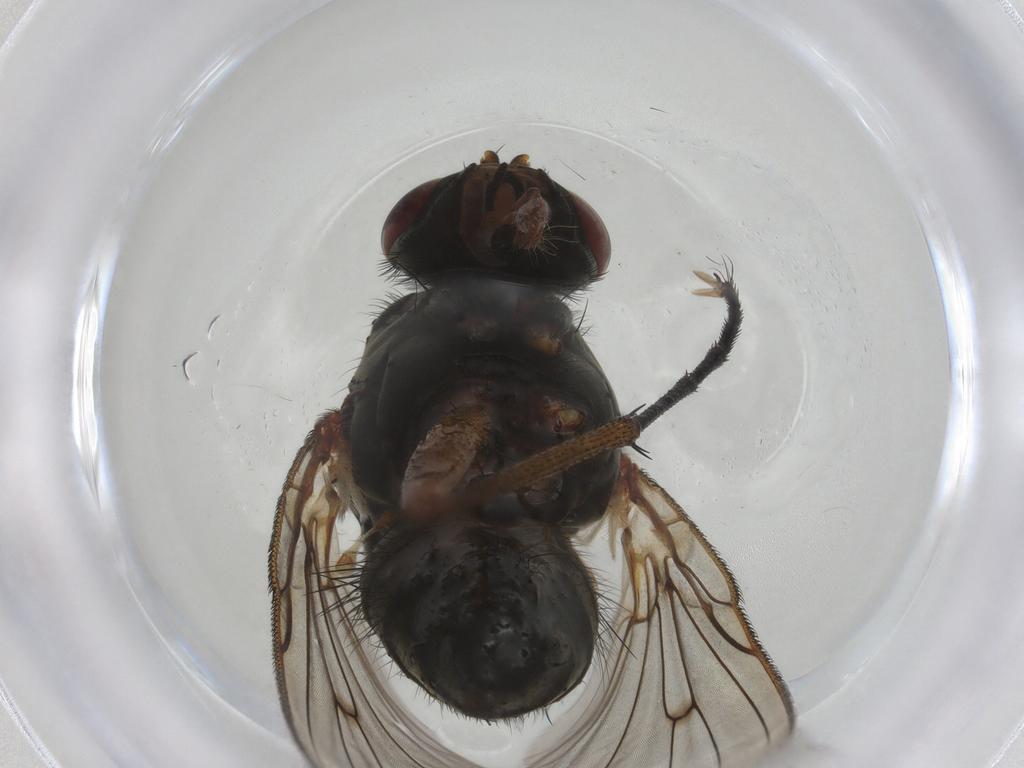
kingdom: Animalia
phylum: Arthropoda
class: Insecta
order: Diptera
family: Anthomyiidae
